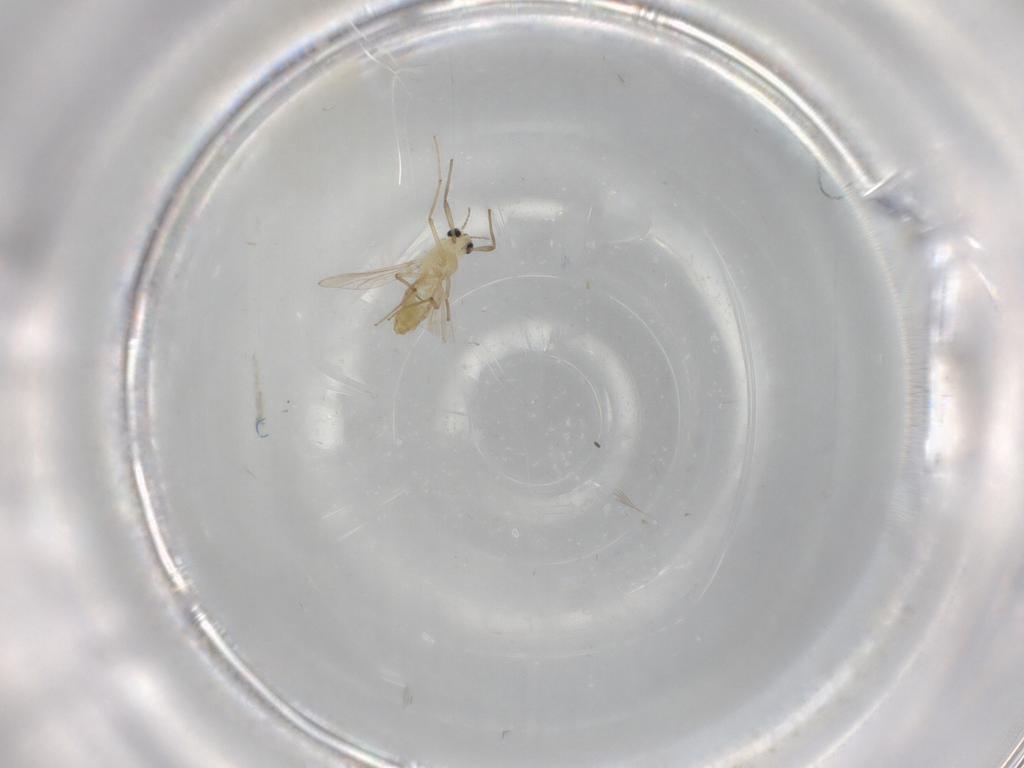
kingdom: Animalia
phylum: Arthropoda
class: Insecta
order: Diptera
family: Chironomidae
